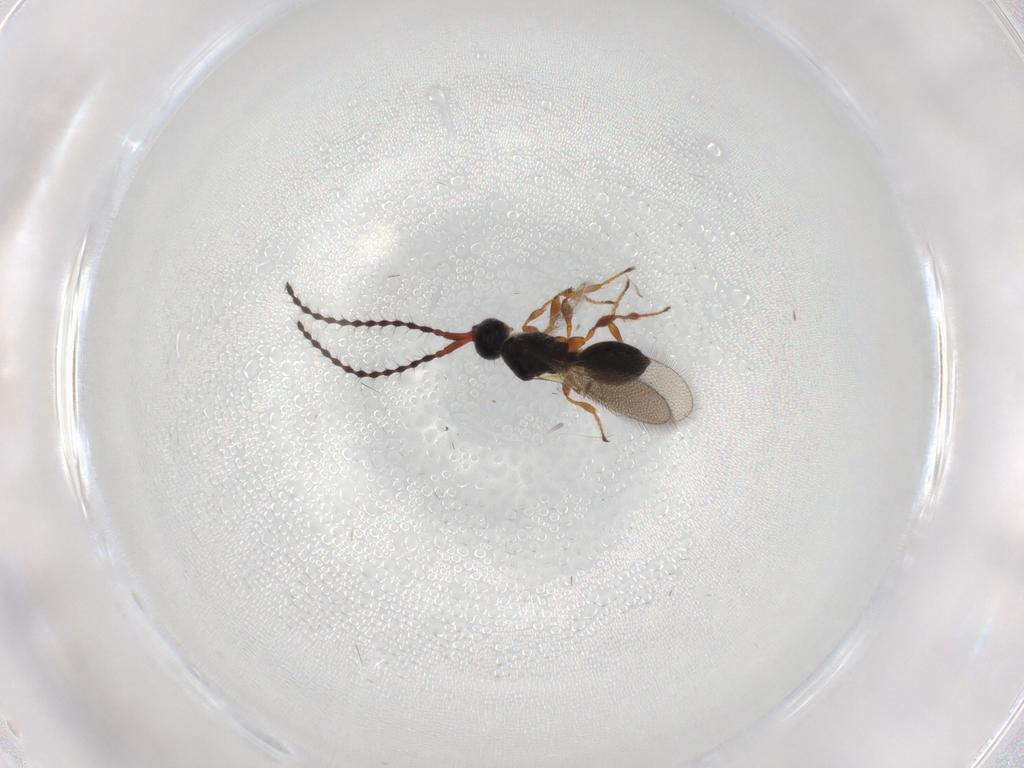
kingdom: Animalia
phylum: Arthropoda
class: Insecta
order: Hymenoptera
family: Diapriidae
